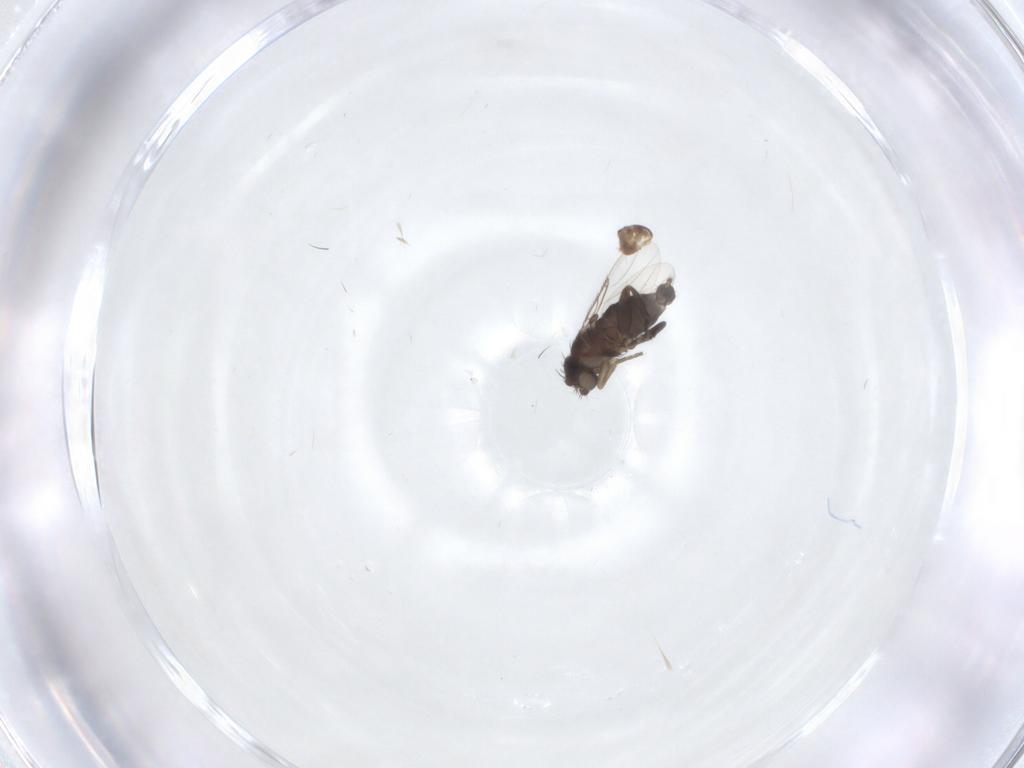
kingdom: Animalia
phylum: Arthropoda
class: Insecta
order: Diptera
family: Phoridae
